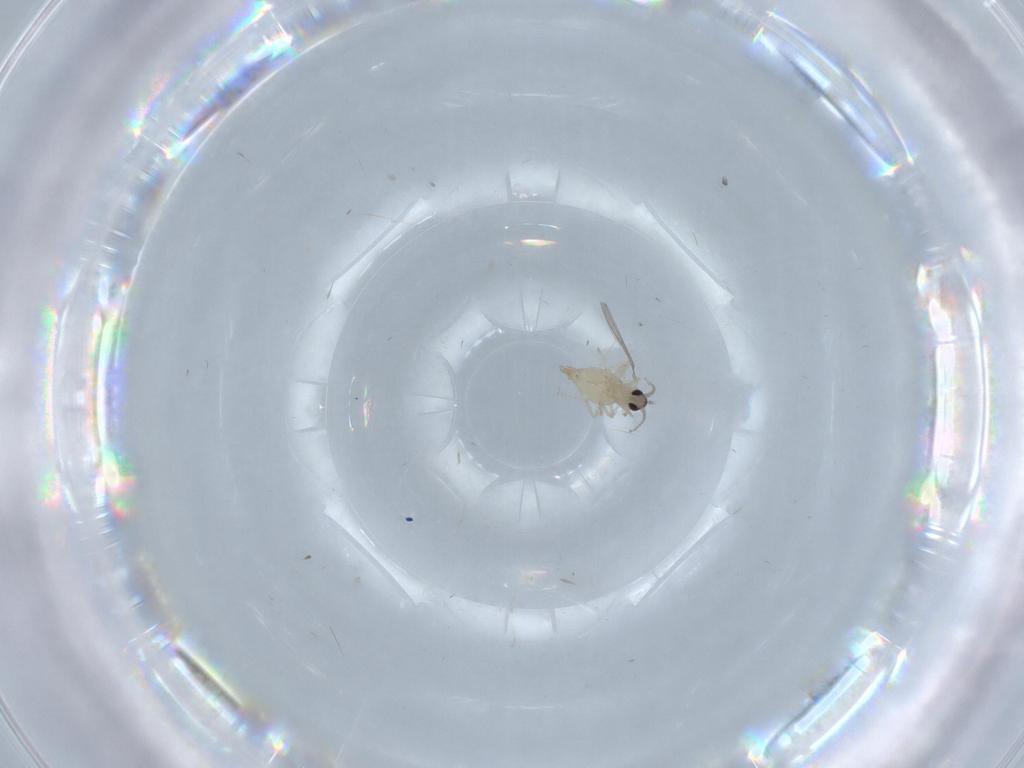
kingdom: Animalia
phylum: Arthropoda
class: Insecta
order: Diptera
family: Cecidomyiidae
